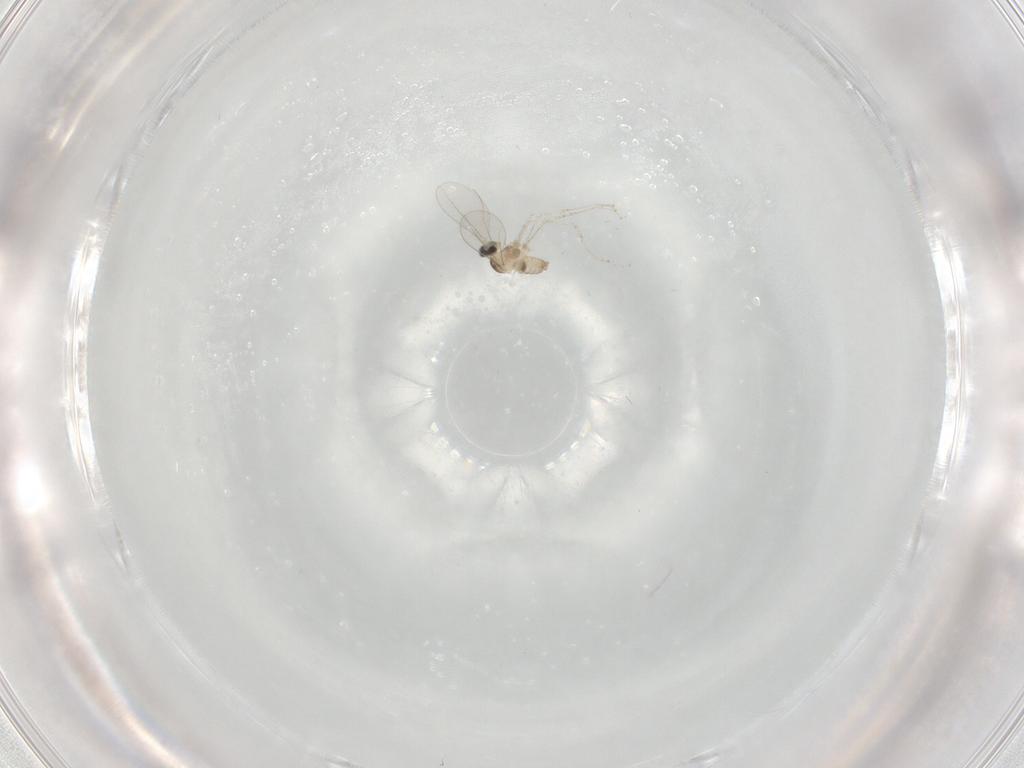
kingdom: Animalia
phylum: Arthropoda
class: Insecta
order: Diptera
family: Cecidomyiidae
